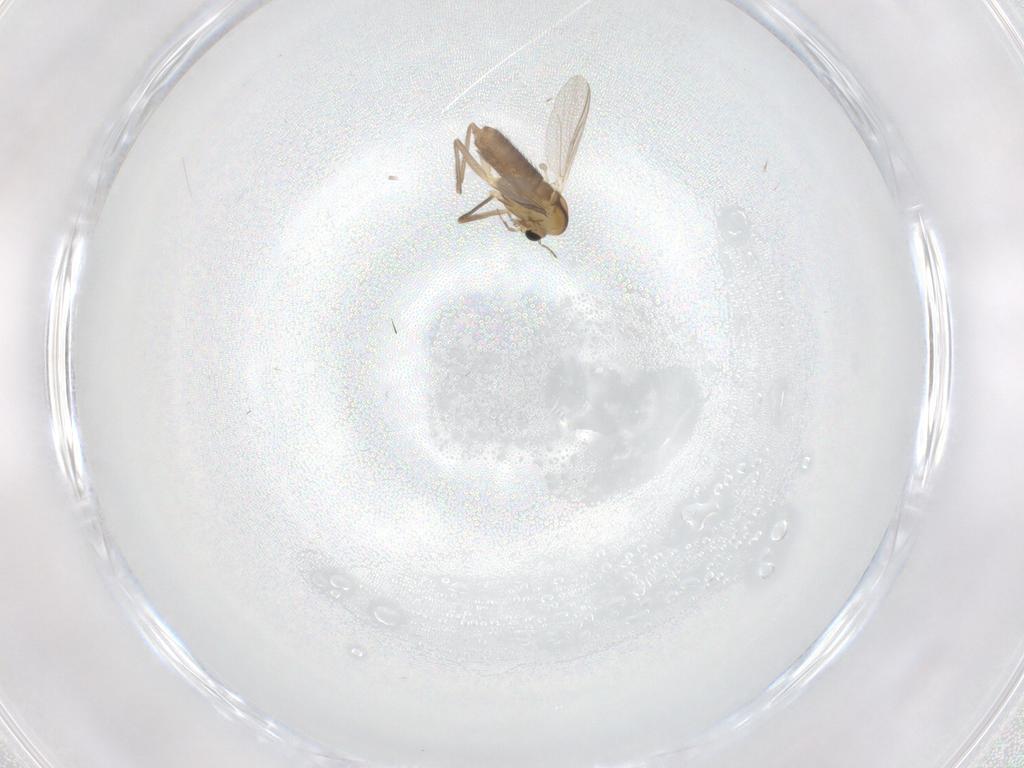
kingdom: Animalia
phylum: Arthropoda
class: Insecta
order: Diptera
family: Chironomidae
